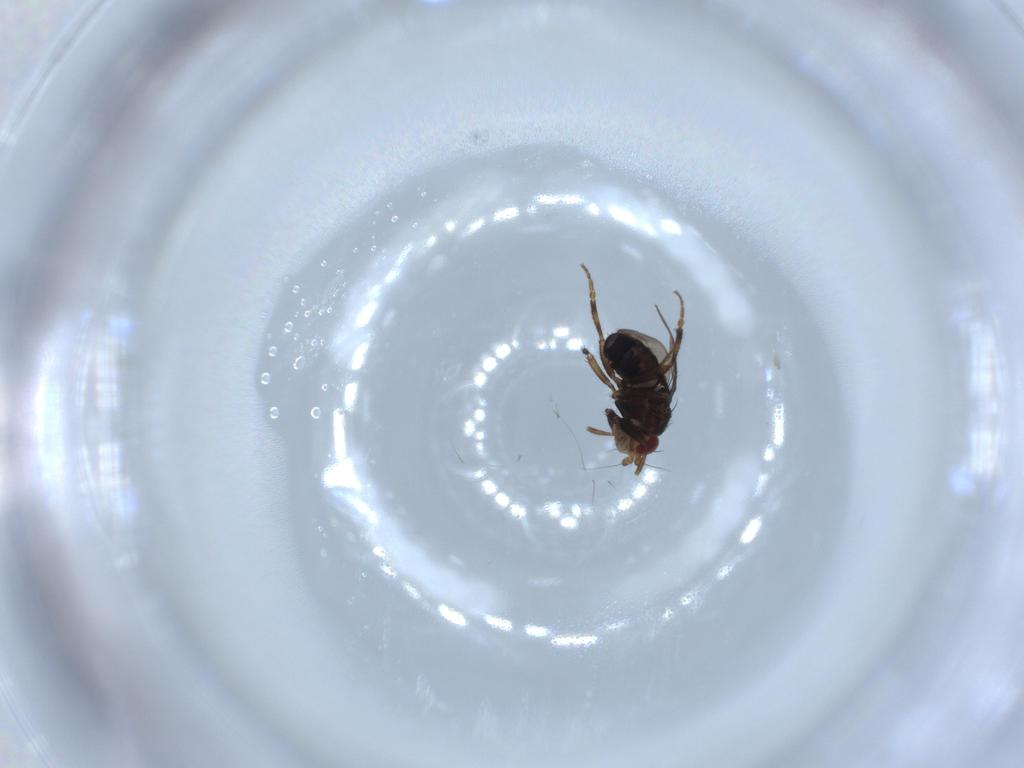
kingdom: Animalia
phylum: Arthropoda
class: Insecta
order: Diptera
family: Sphaeroceridae
